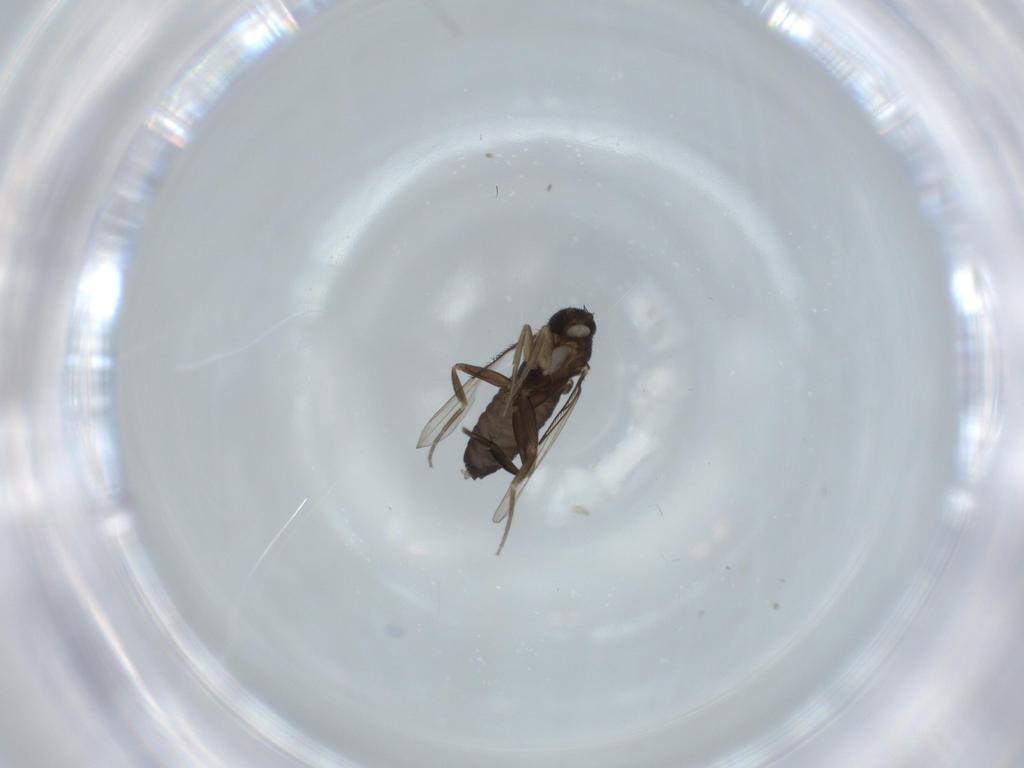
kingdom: Animalia
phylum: Arthropoda
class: Insecta
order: Diptera
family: Phoridae
